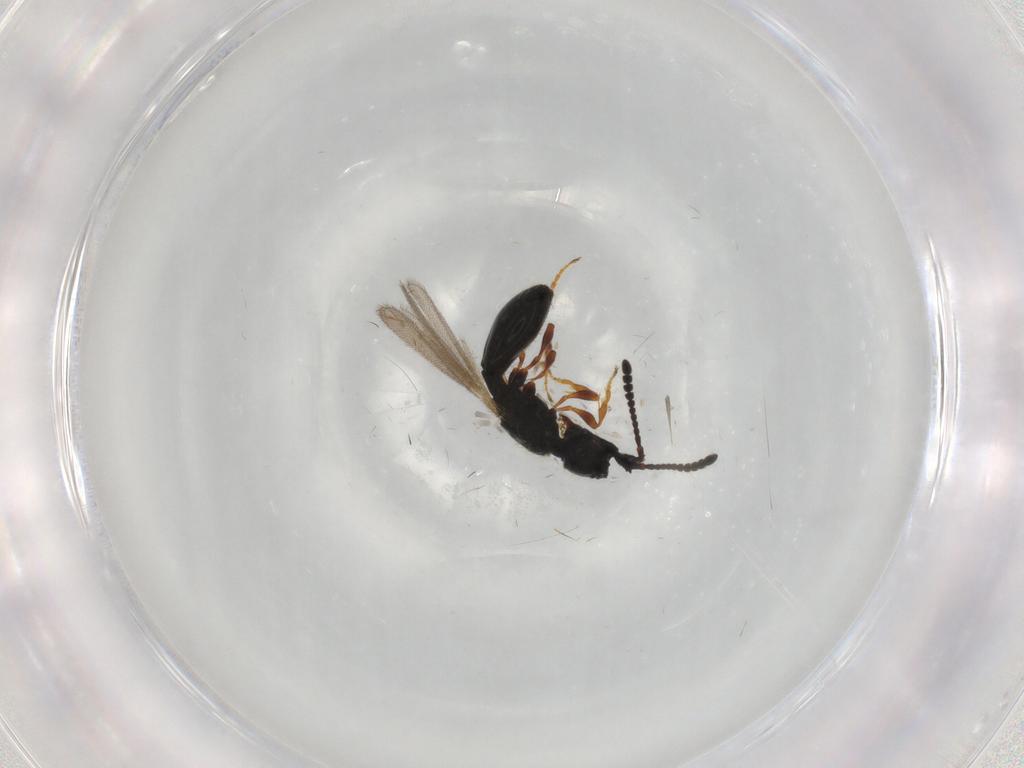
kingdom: Animalia
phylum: Arthropoda
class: Insecta
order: Hymenoptera
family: Diapriidae
